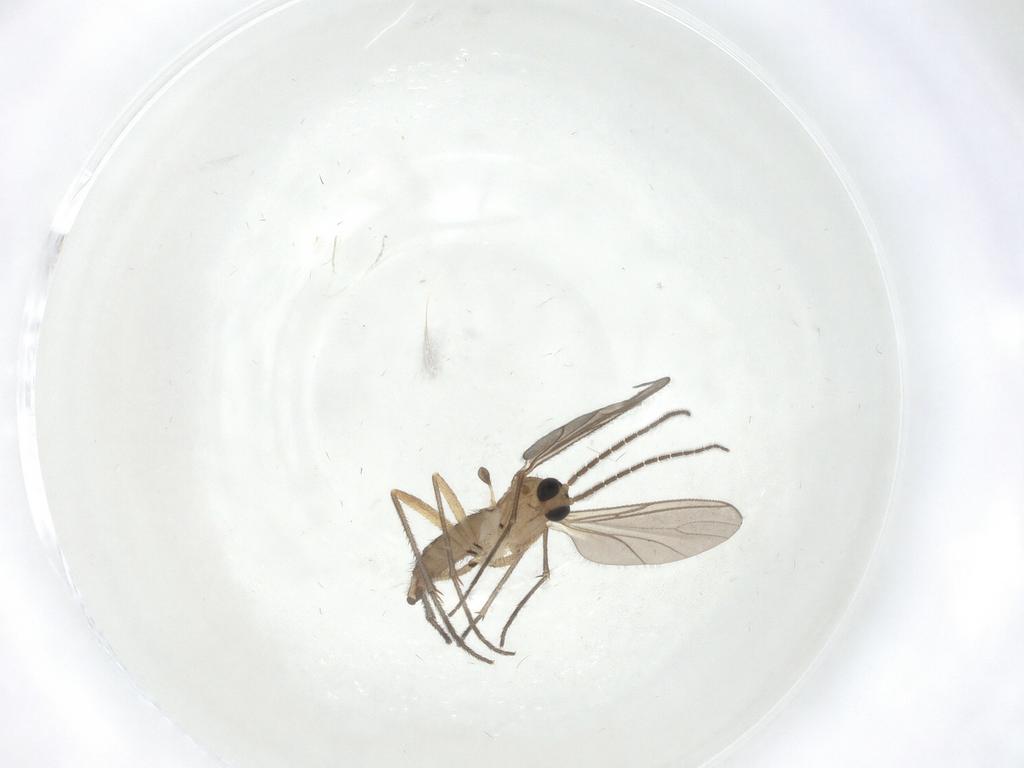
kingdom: Animalia
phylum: Arthropoda
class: Insecta
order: Diptera
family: Sciaridae
